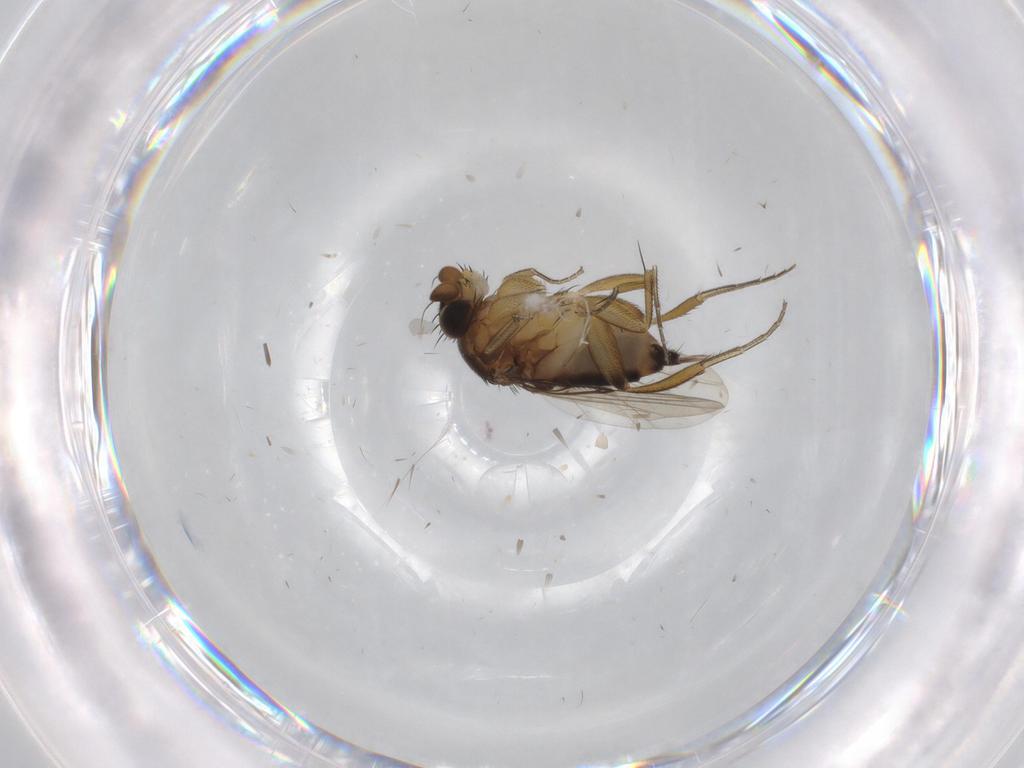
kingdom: Animalia
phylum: Arthropoda
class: Insecta
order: Diptera
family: Phoridae
